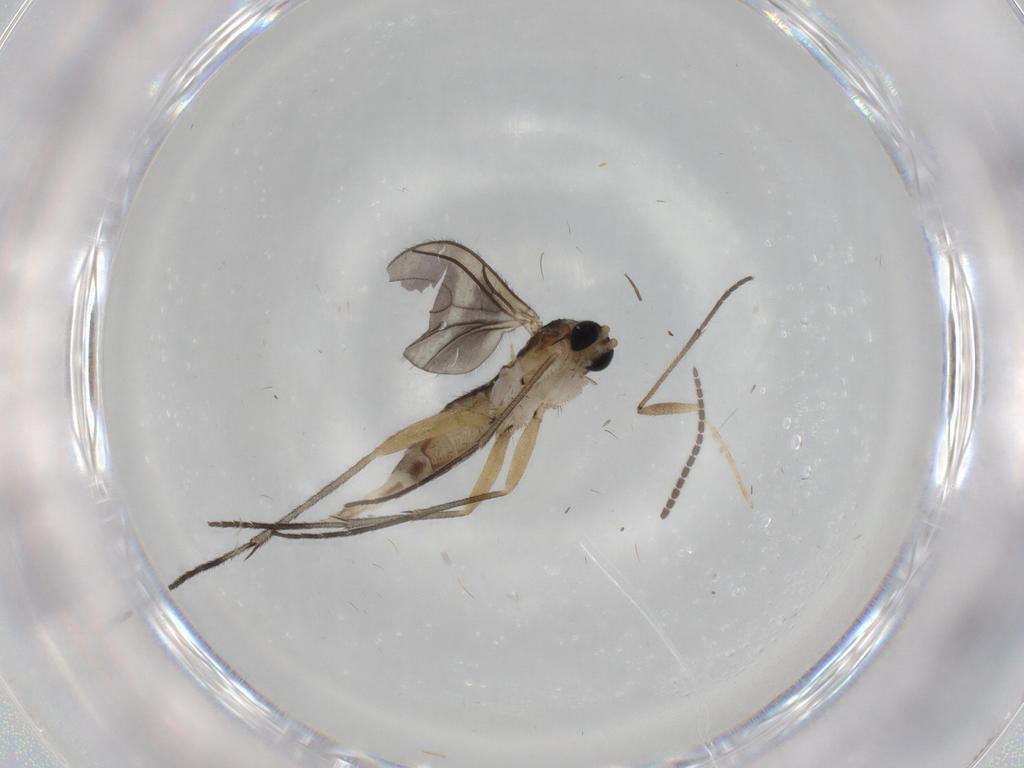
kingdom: Animalia
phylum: Arthropoda
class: Insecta
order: Diptera
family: Sciaridae
